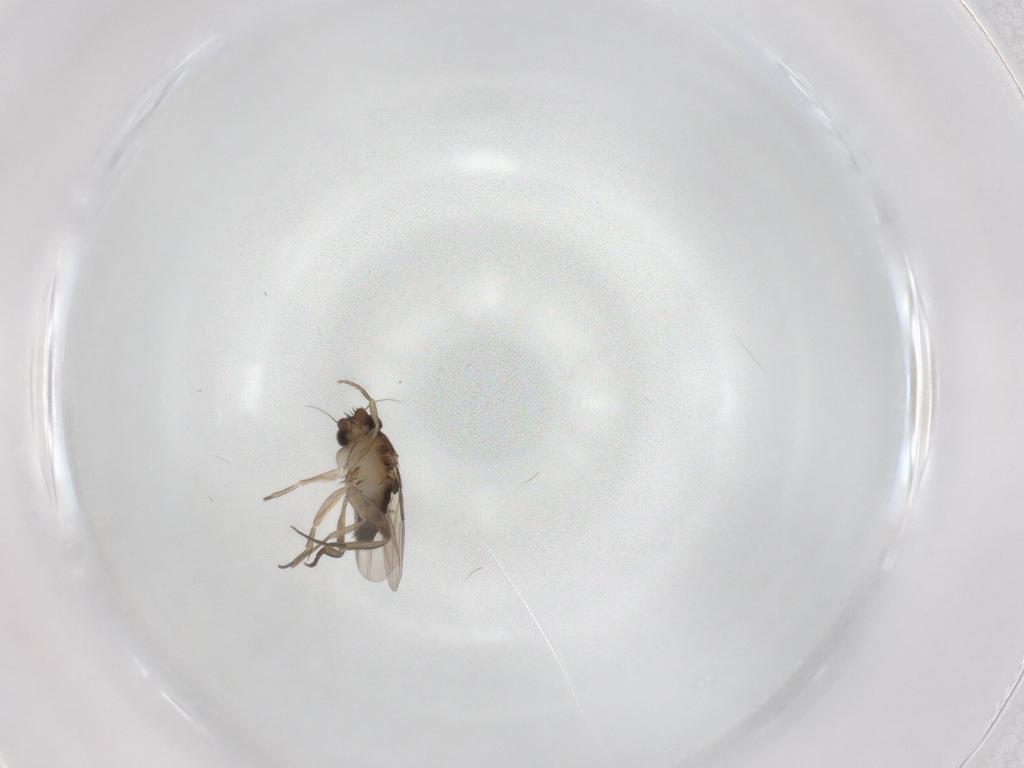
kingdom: Animalia
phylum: Arthropoda
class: Insecta
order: Diptera
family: Phoridae
